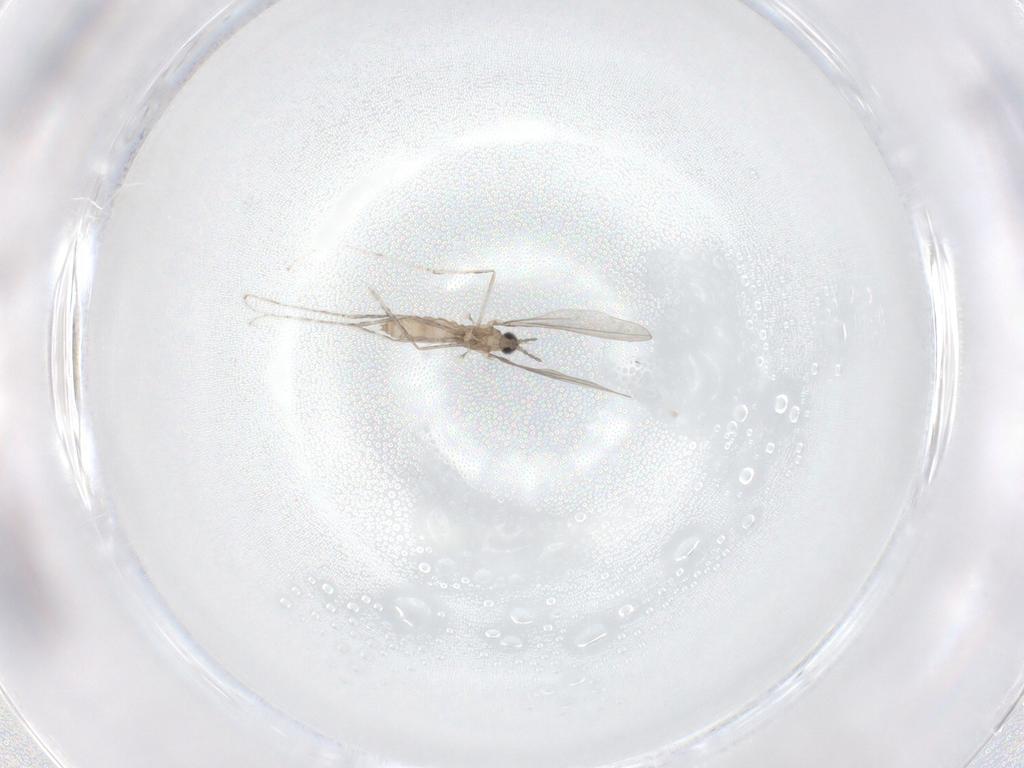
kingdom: Animalia
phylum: Arthropoda
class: Insecta
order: Diptera
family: Cecidomyiidae
